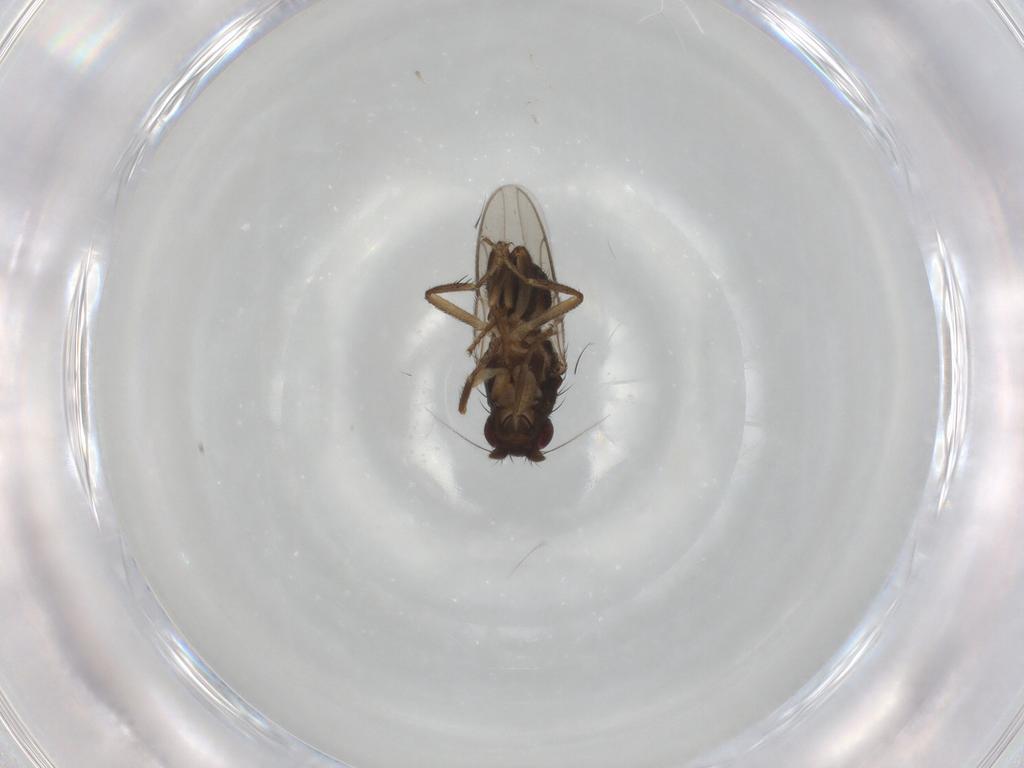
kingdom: Animalia
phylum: Arthropoda
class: Insecta
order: Diptera
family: Sphaeroceridae
